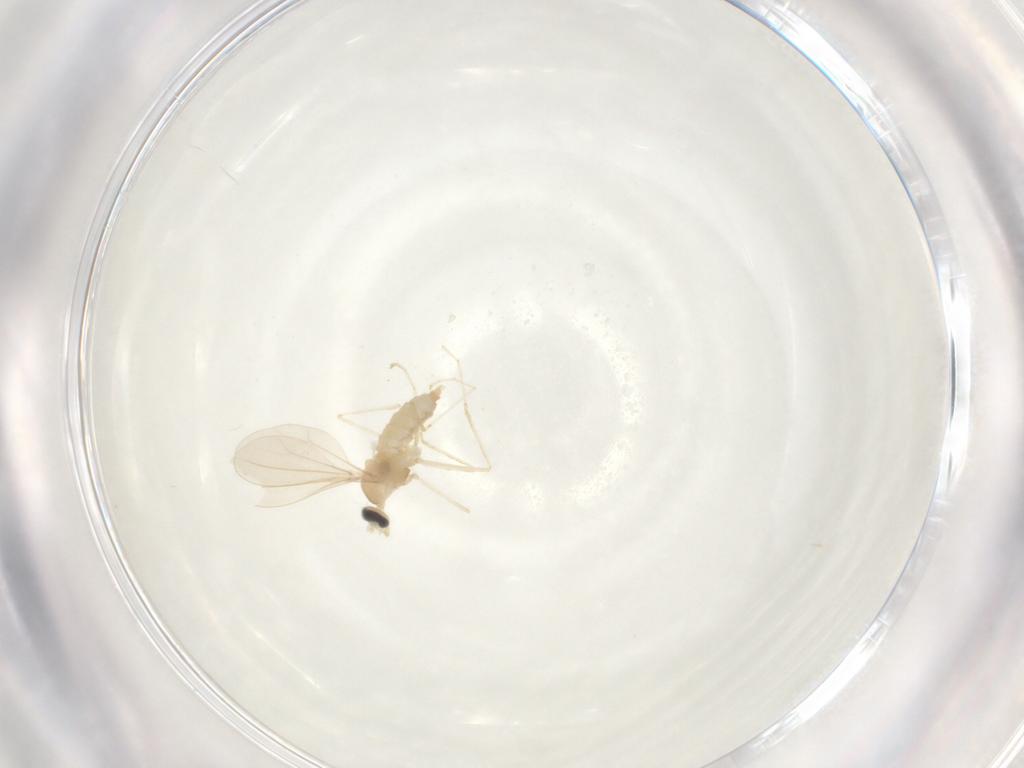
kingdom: Animalia
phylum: Arthropoda
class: Insecta
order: Diptera
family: Cecidomyiidae
